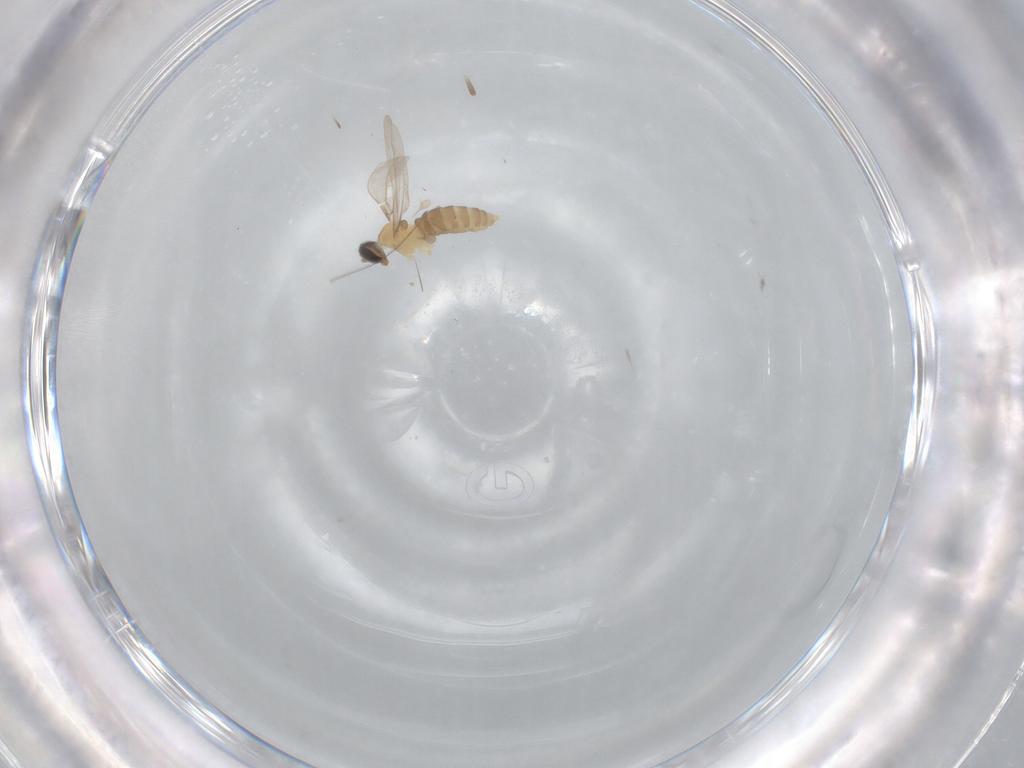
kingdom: Animalia
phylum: Arthropoda
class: Insecta
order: Diptera
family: Cecidomyiidae
